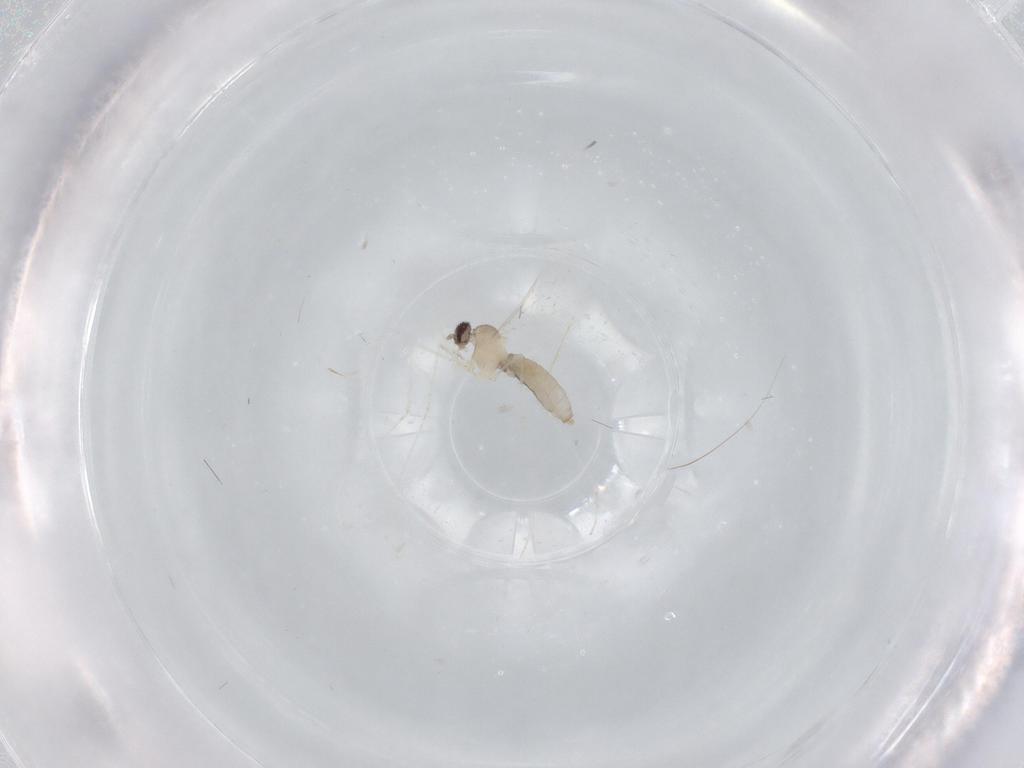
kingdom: Animalia
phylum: Arthropoda
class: Insecta
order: Diptera
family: Cecidomyiidae
